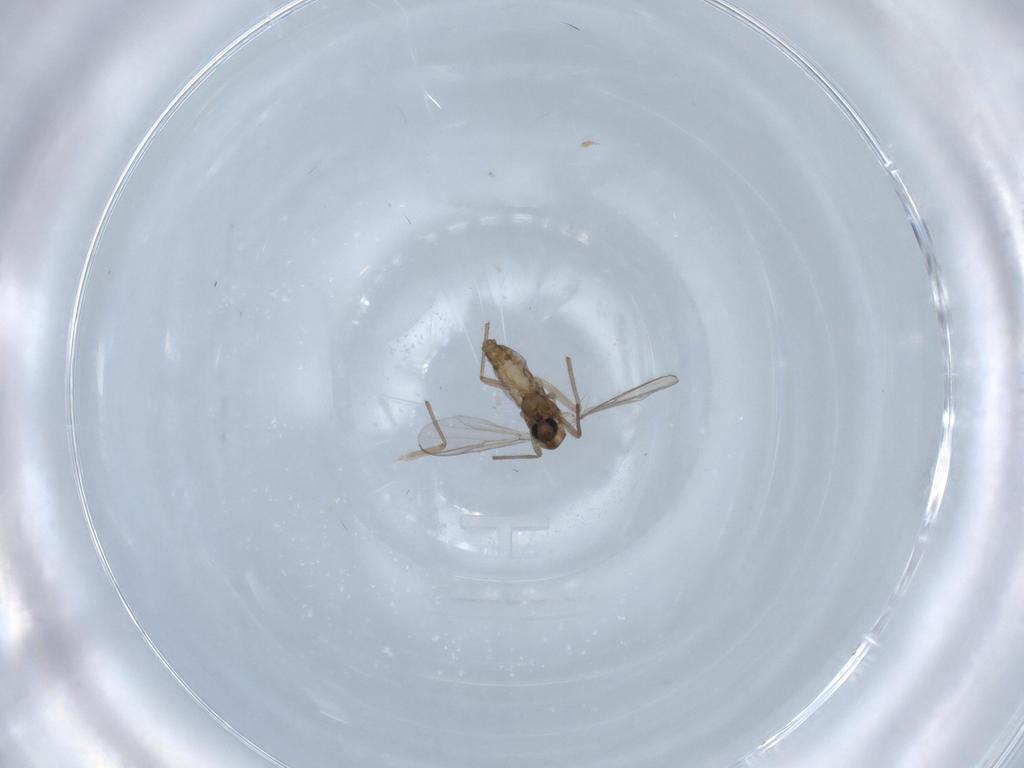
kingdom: Animalia
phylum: Arthropoda
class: Insecta
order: Diptera
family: Chironomidae
